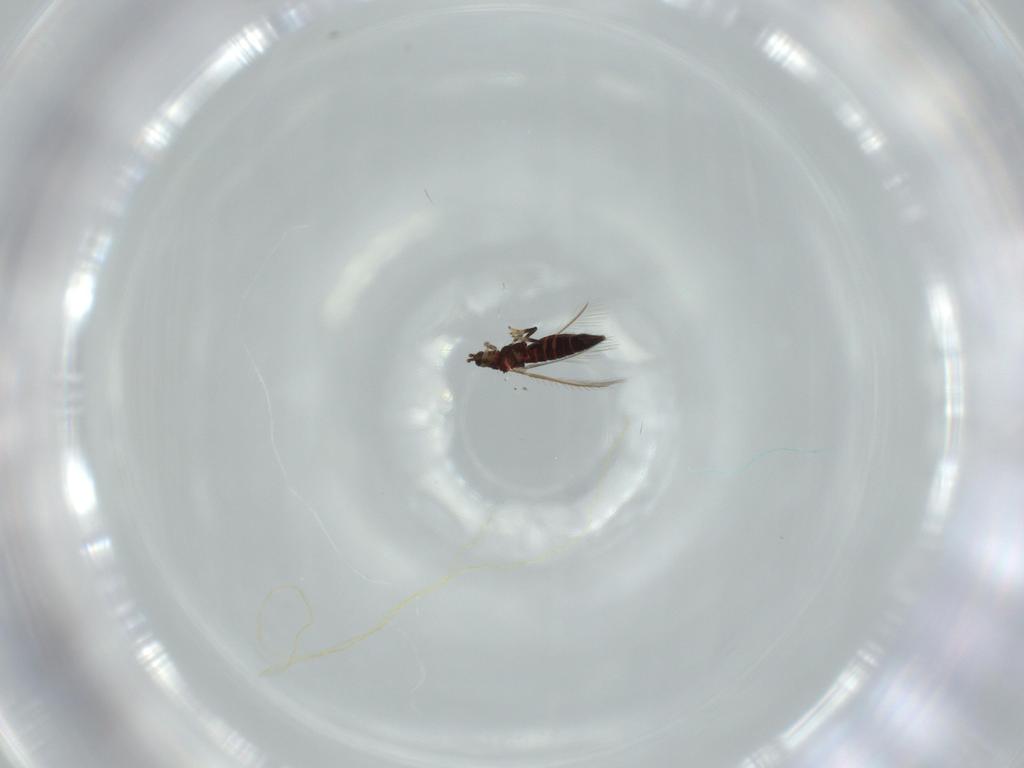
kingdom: Animalia
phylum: Arthropoda
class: Insecta
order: Thysanoptera
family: Thripidae
